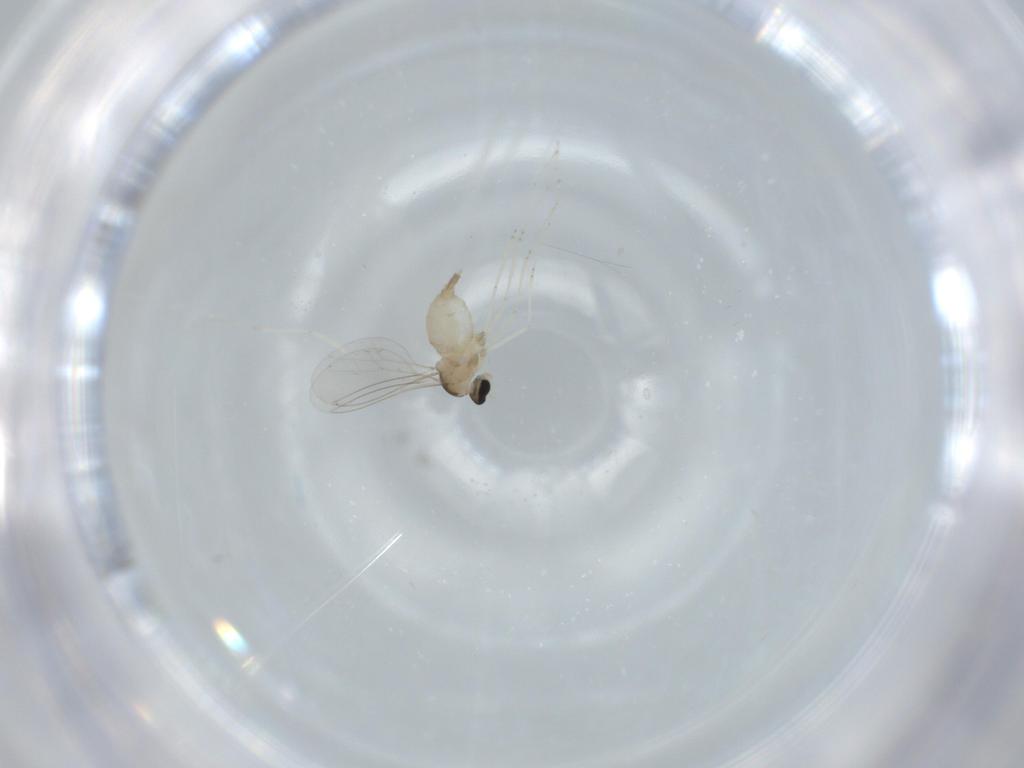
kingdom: Animalia
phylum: Arthropoda
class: Insecta
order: Diptera
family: Cecidomyiidae
